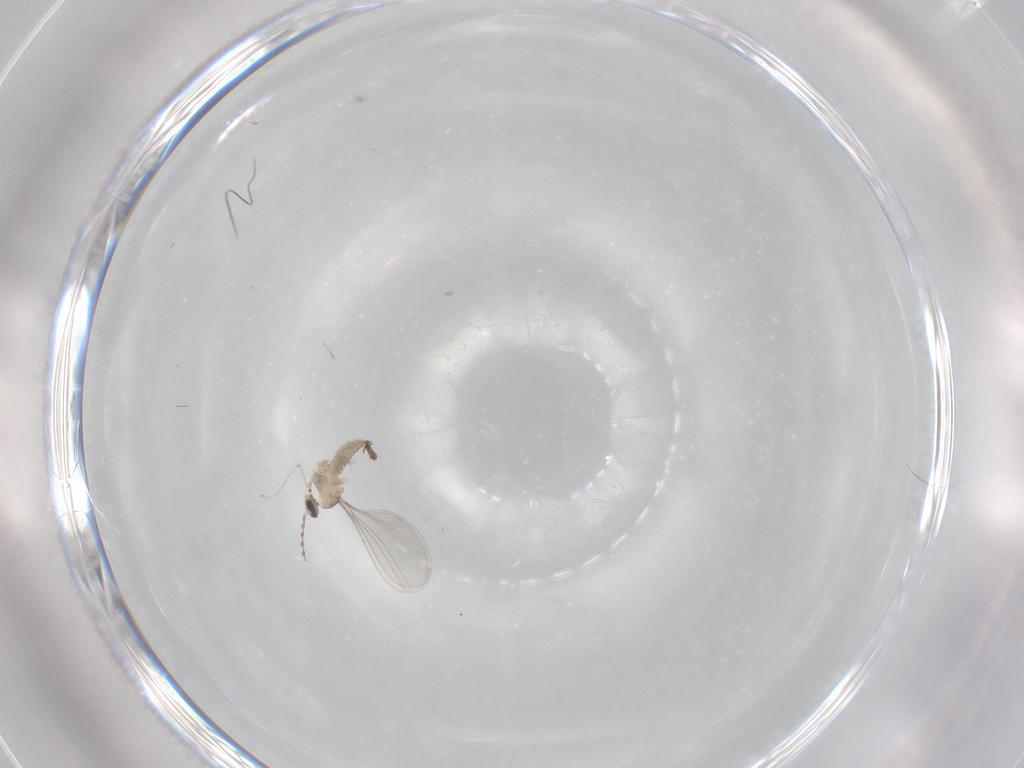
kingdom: Animalia
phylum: Arthropoda
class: Insecta
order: Diptera
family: Cecidomyiidae
